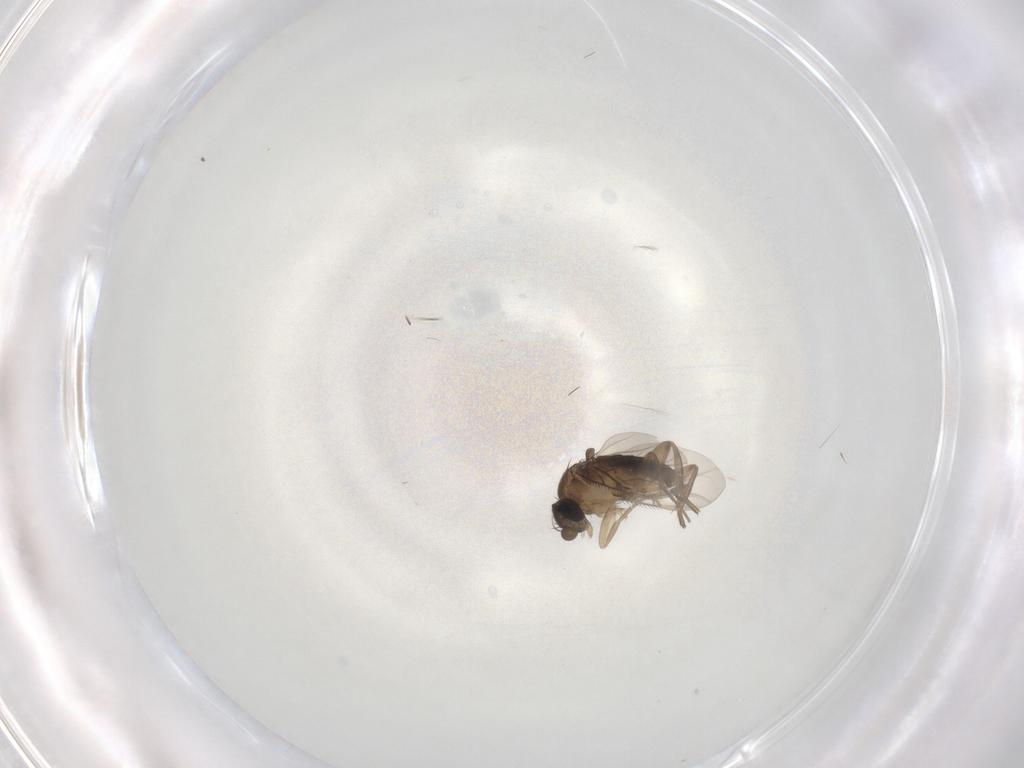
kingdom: Animalia
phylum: Arthropoda
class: Insecta
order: Diptera
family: Phoridae
